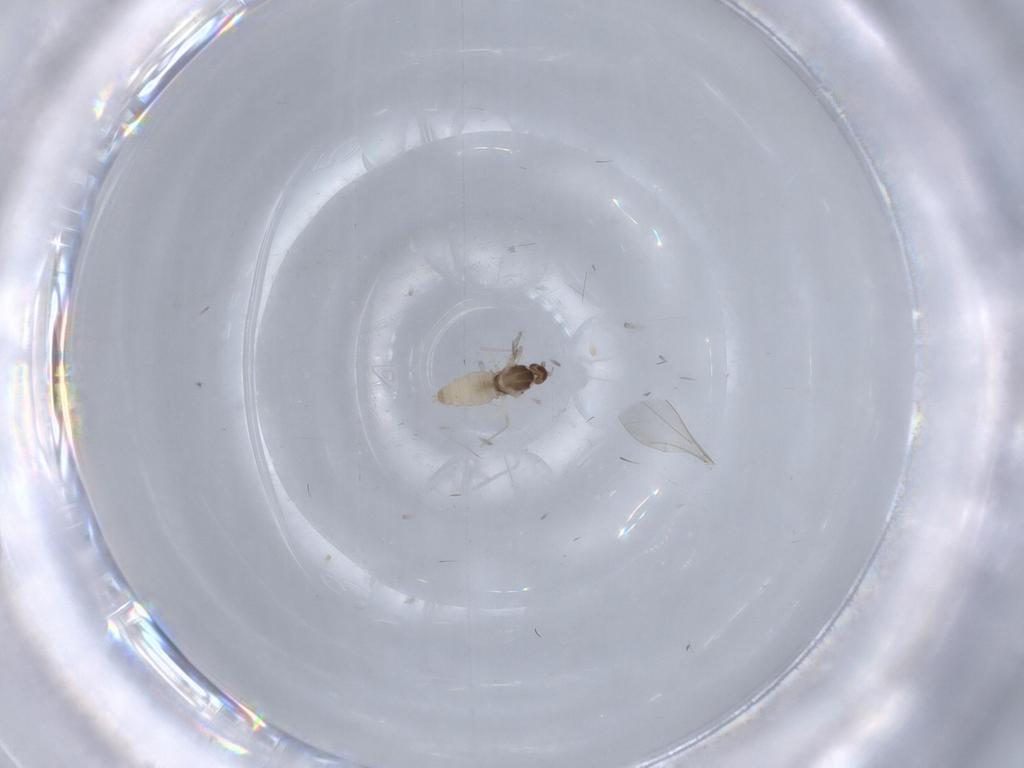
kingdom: Animalia
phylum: Arthropoda
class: Insecta
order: Diptera
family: Cecidomyiidae
